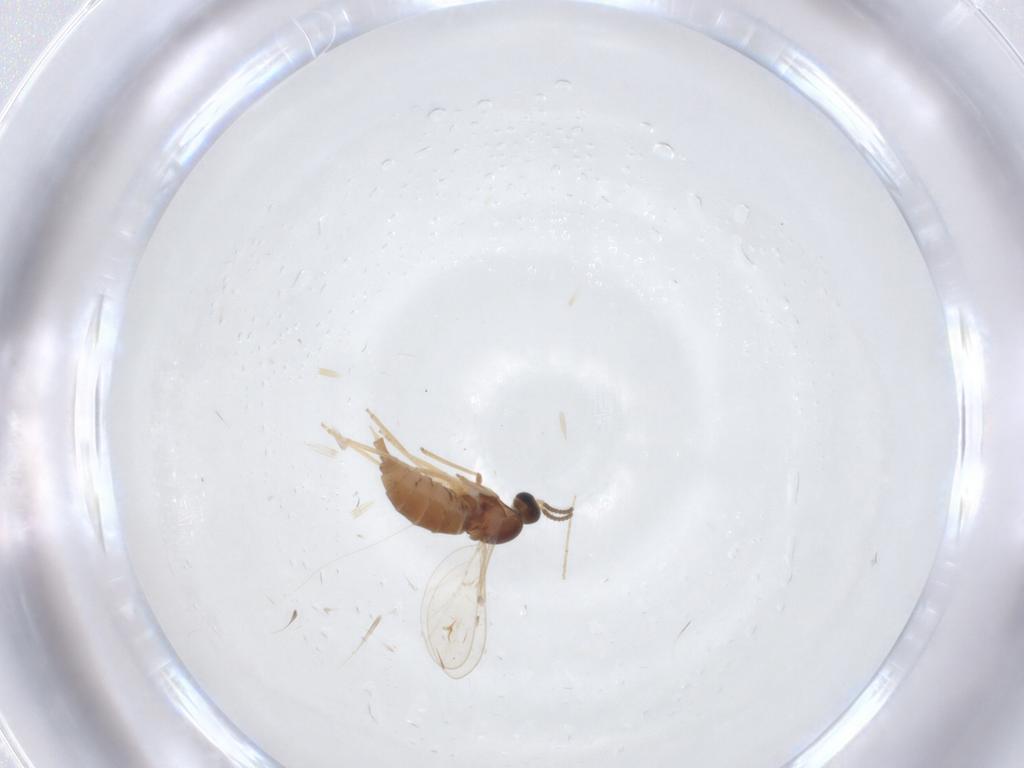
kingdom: Animalia
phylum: Arthropoda
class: Insecta
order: Diptera
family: Cecidomyiidae
